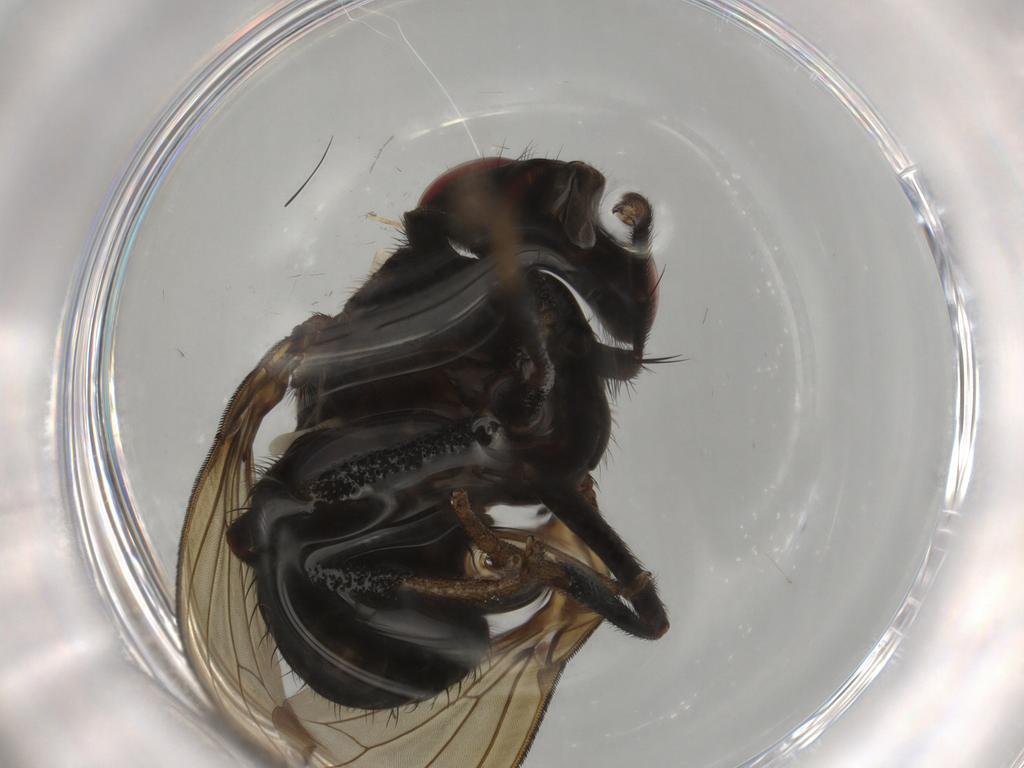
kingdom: Animalia
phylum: Arthropoda
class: Insecta
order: Diptera
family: Lauxaniidae
